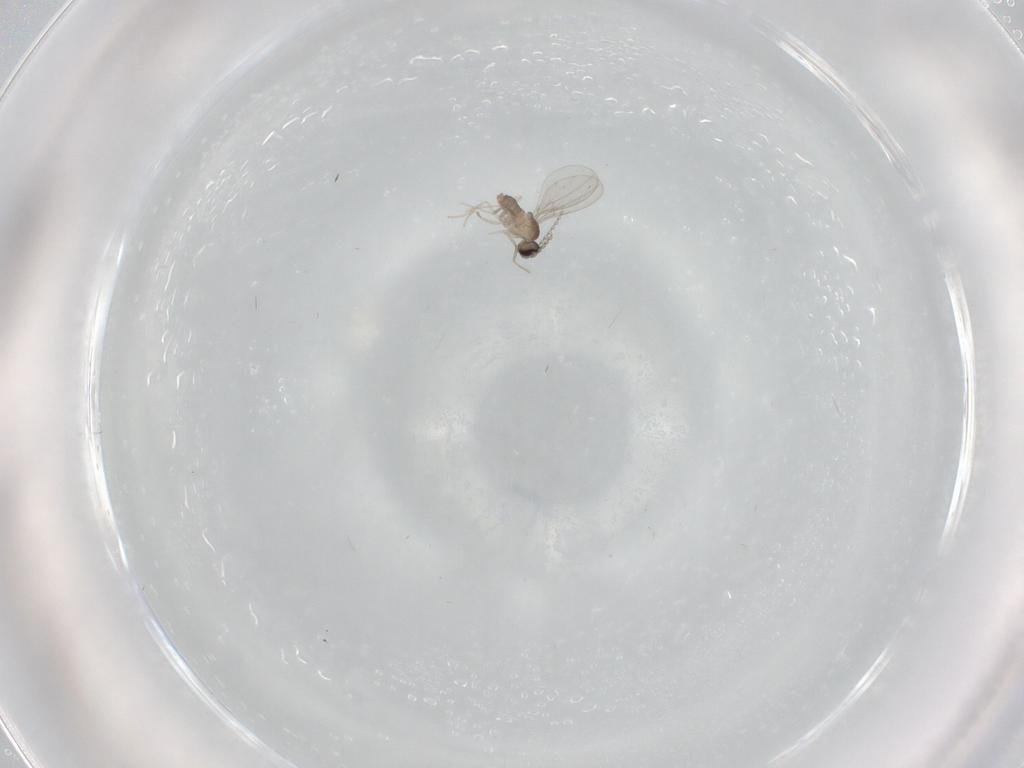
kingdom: Animalia
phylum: Arthropoda
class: Insecta
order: Diptera
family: Cecidomyiidae
